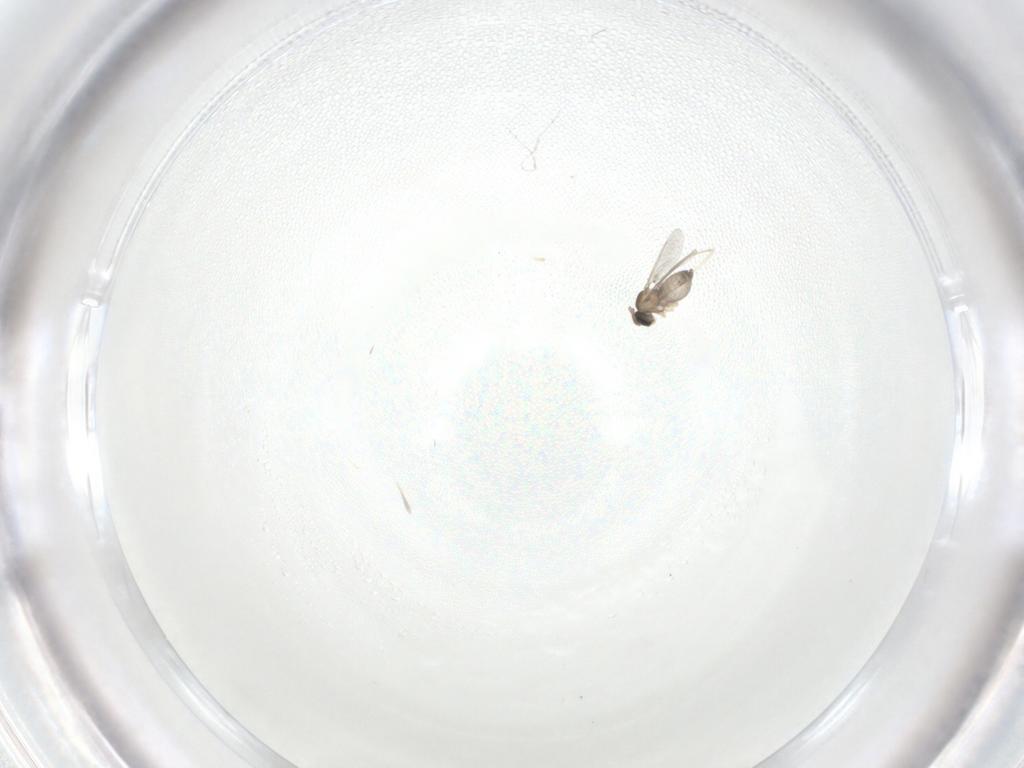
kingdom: Animalia
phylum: Arthropoda
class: Insecta
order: Diptera
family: Cecidomyiidae
